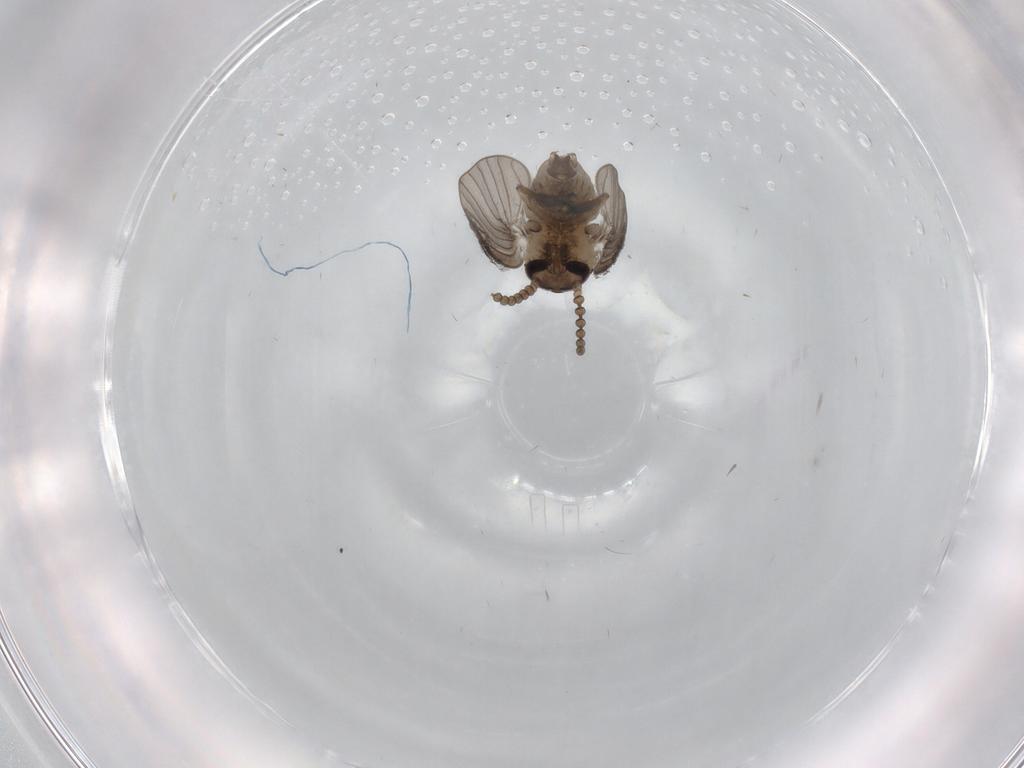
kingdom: Animalia
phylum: Arthropoda
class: Insecta
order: Diptera
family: Psychodidae
